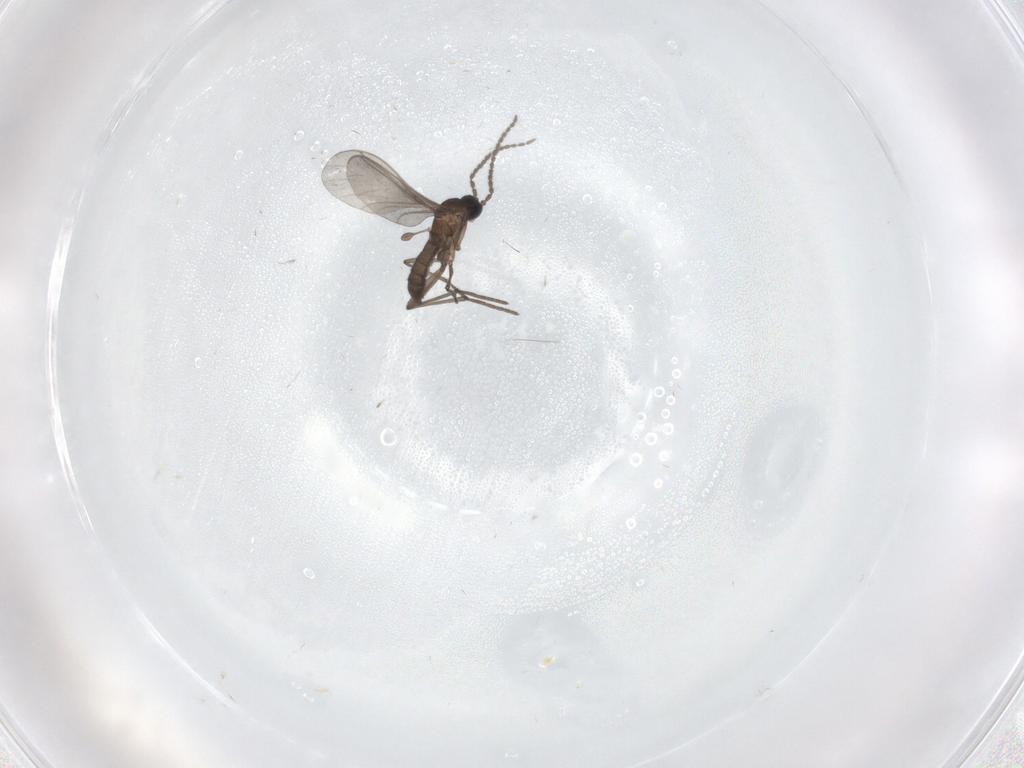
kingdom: Animalia
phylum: Arthropoda
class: Insecta
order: Diptera
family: Sciaridae
